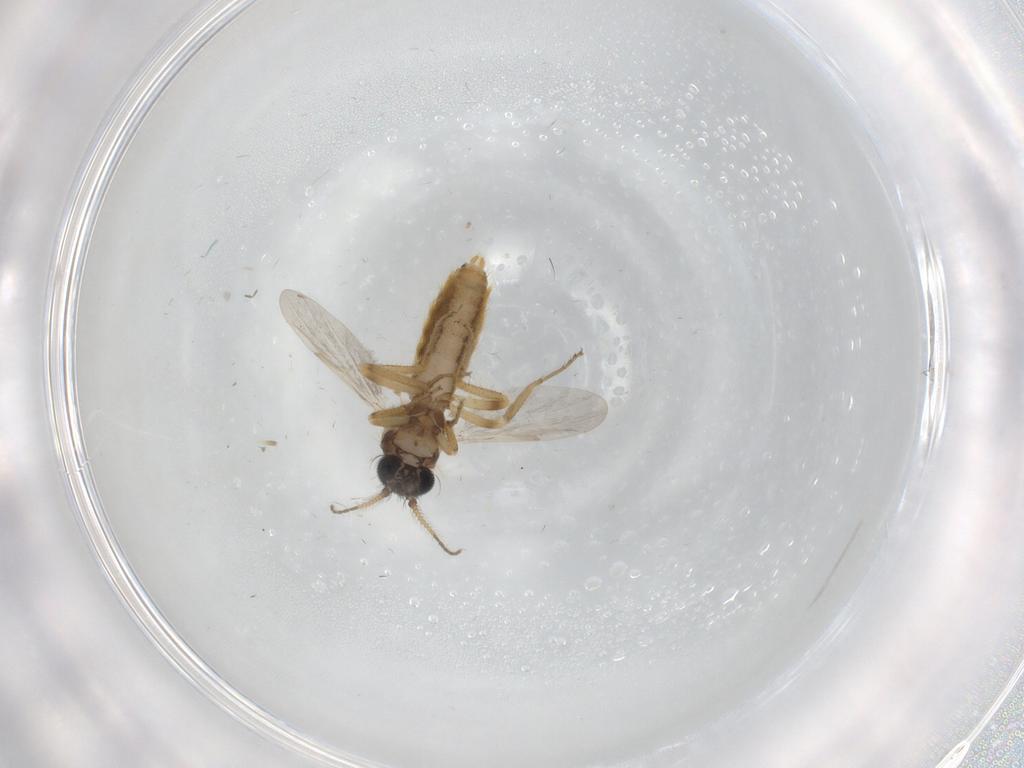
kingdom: Animalia
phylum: Arthropoda
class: Insecta
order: Diptera
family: Ceratopogonidae
